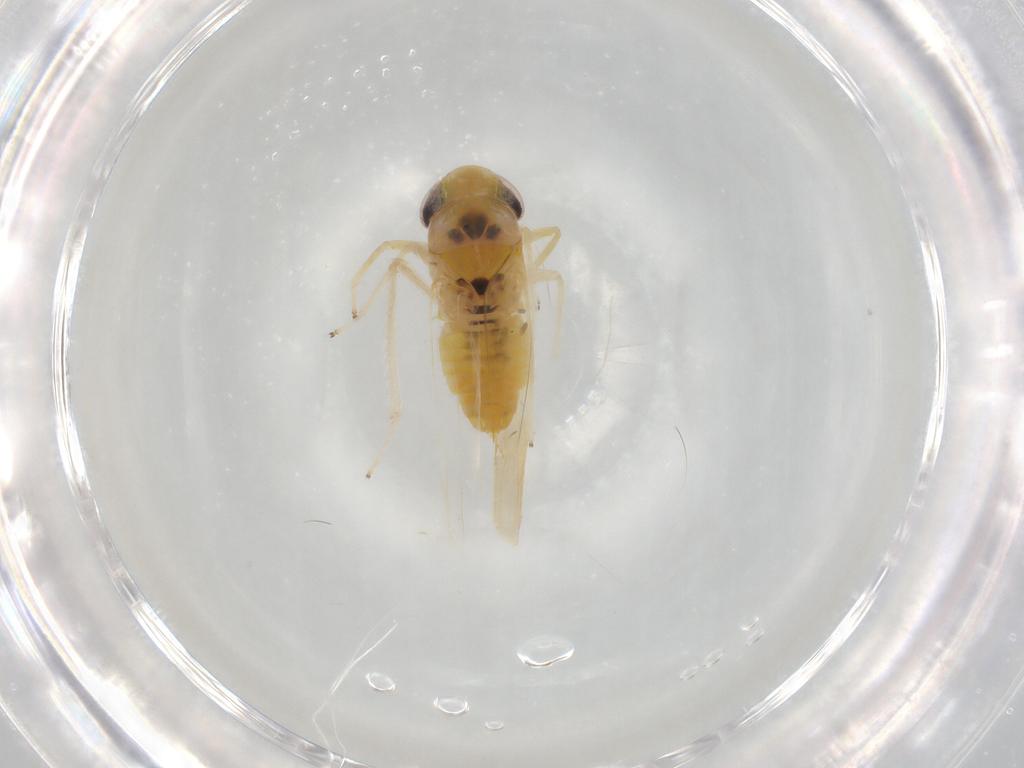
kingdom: Animalia
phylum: Arthropoda
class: Insecta
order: Hemiptera
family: Cicadellidae
